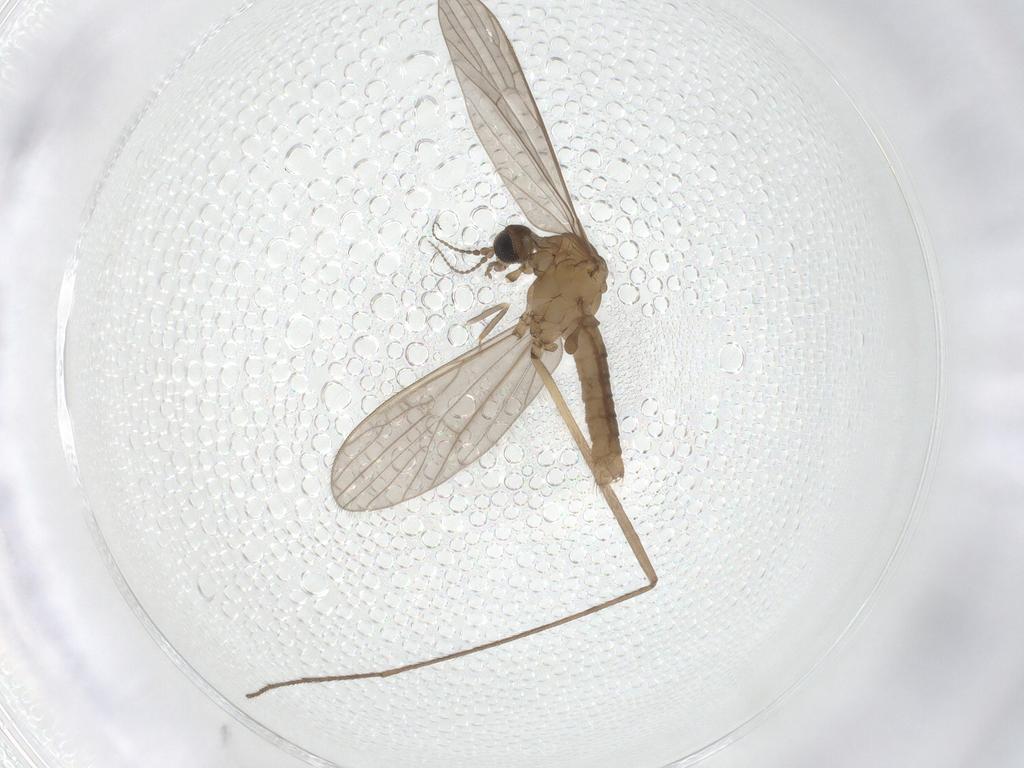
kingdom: Animalia
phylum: Arthropoda
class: Insecta
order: Diptera
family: Limoniidae
